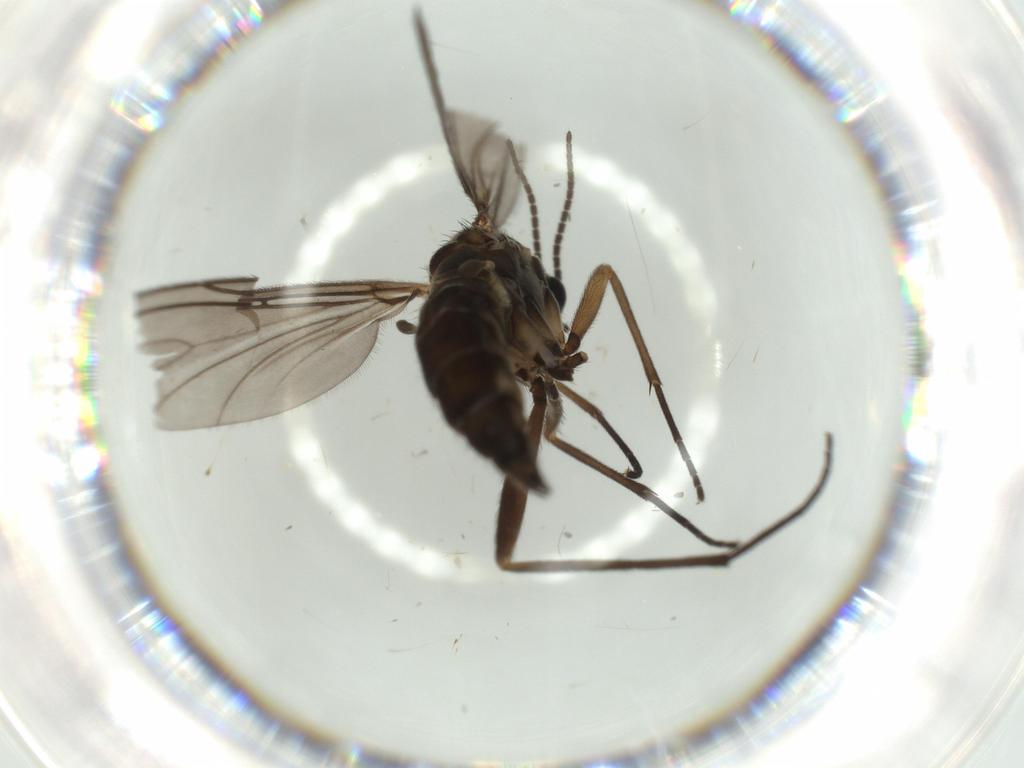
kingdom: Animalia
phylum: Arthropoda
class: Insecta
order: Diptera
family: Sciaridae
